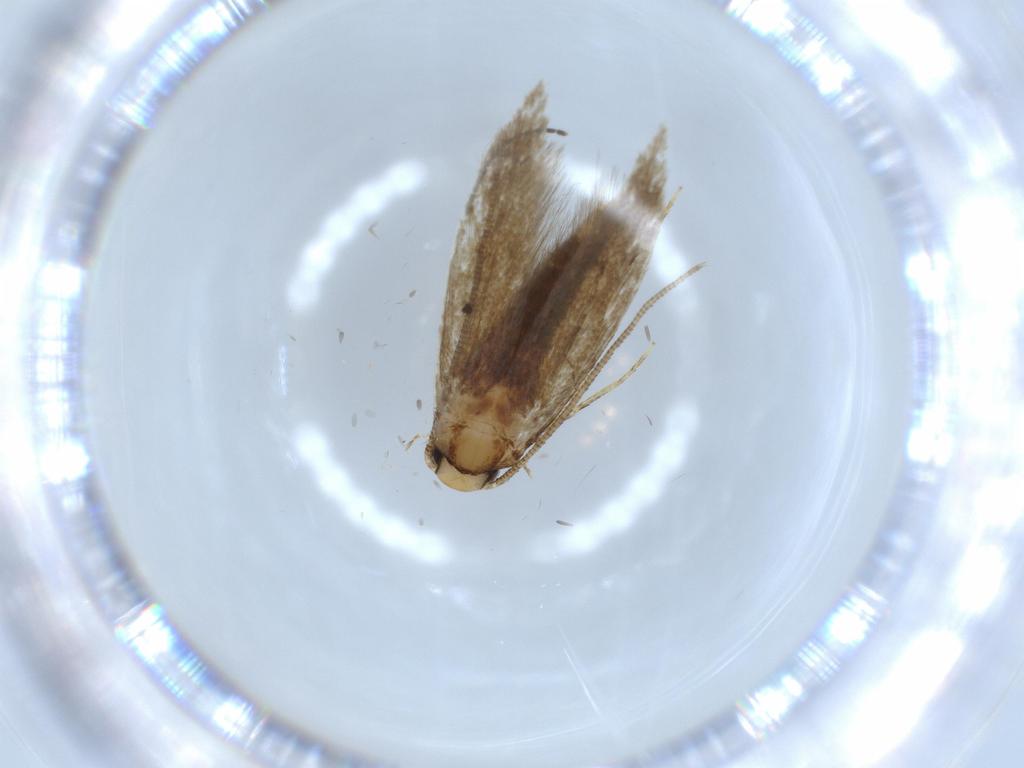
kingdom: Animalia
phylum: Arthropoda
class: Insecta
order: Lepidoptera
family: Tineidae
